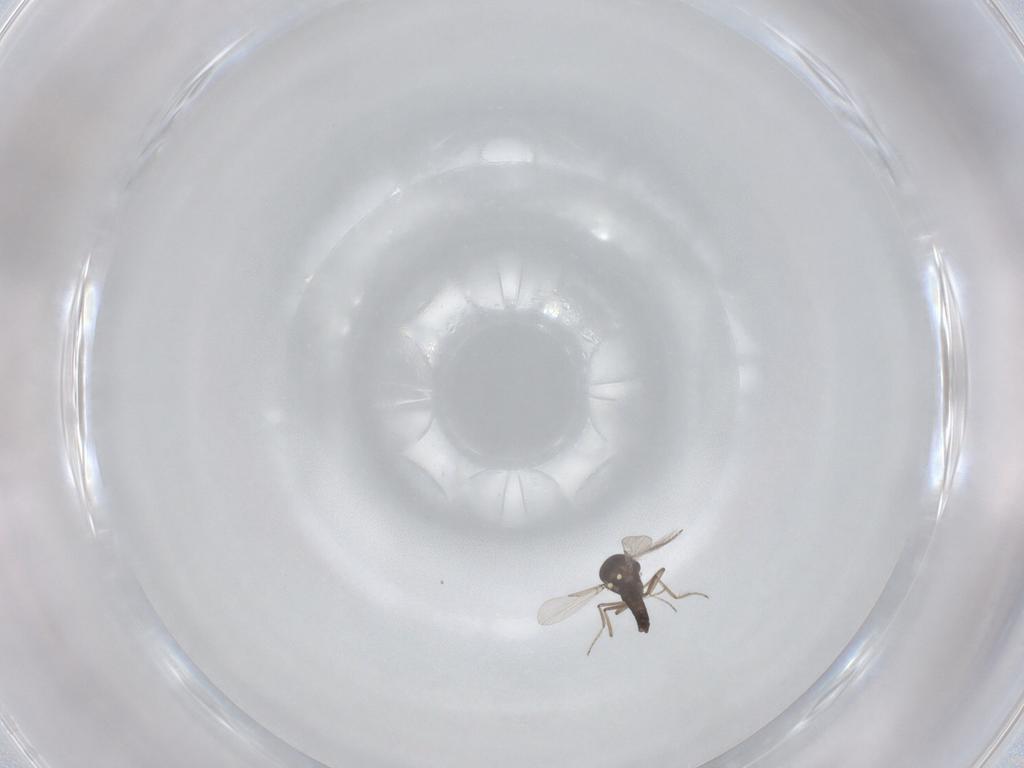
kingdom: Animalia
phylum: Arthropoda
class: Insecta
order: Diptera
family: Ceratopogonidae
